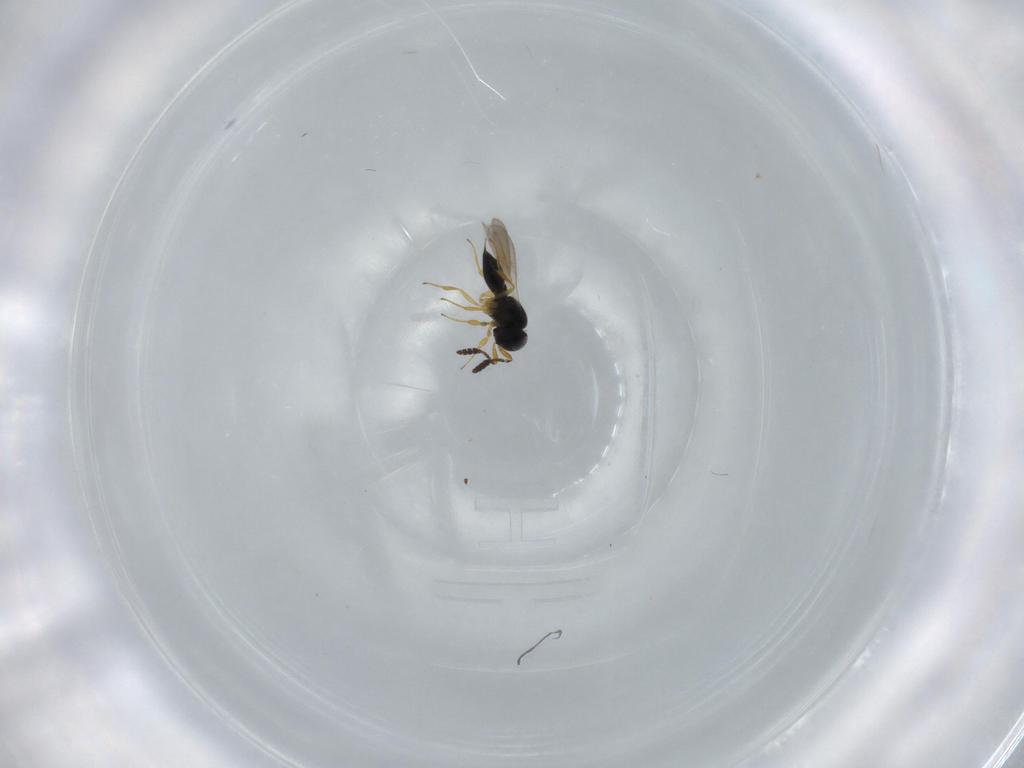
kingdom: Animalia
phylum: Arthropoda
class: Insecta
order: Hymenoptera
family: Scelionidae
